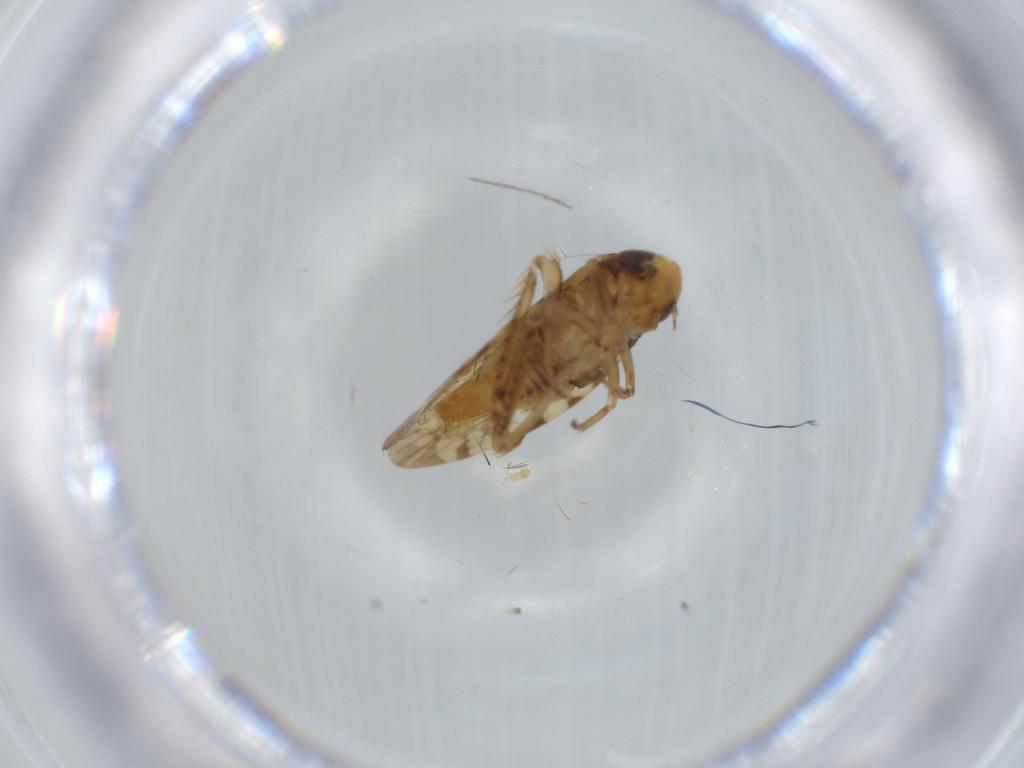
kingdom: Animalia
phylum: Arthropoda
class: Insecta
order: Hemiptera
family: Cicadellidae
